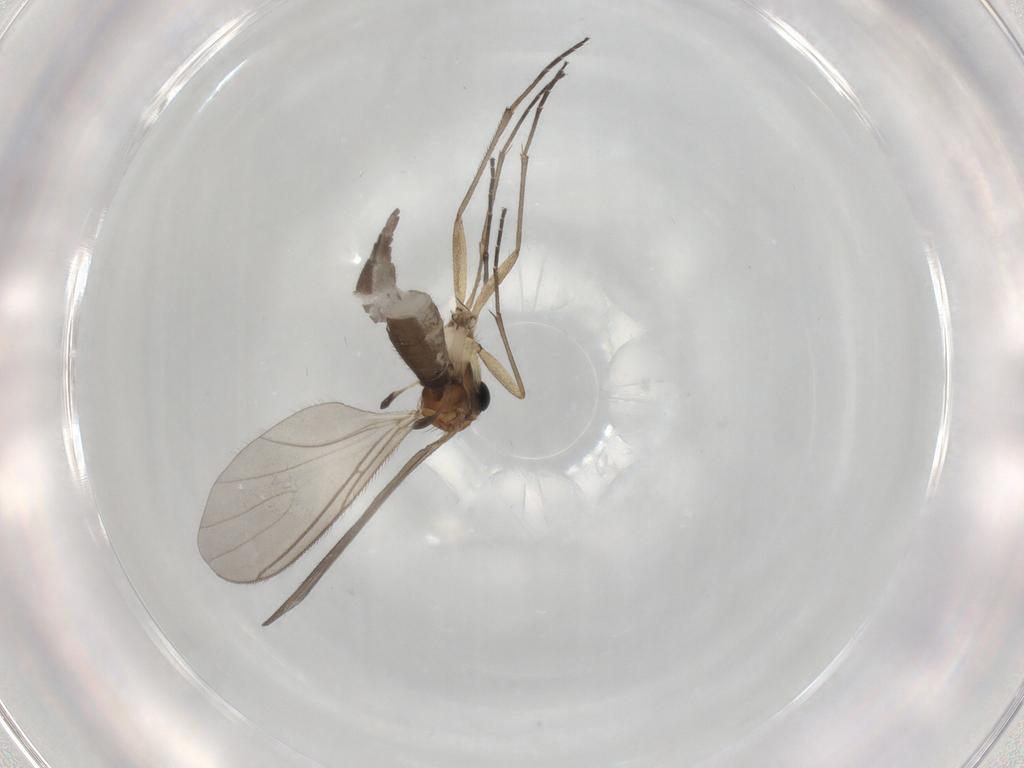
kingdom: Animalia
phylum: Arthropoda
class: Insecta
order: Diptera
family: Sciaridae
